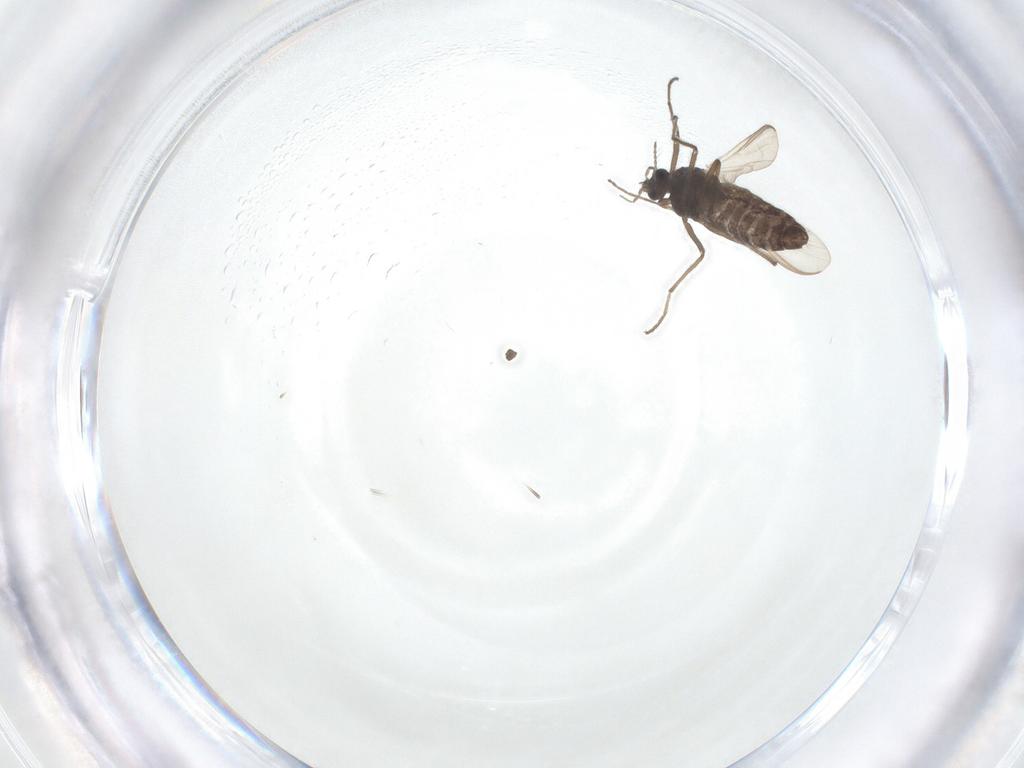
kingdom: Animalia
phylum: Arthropoda
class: Insecta
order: Diptera
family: Phoridae
